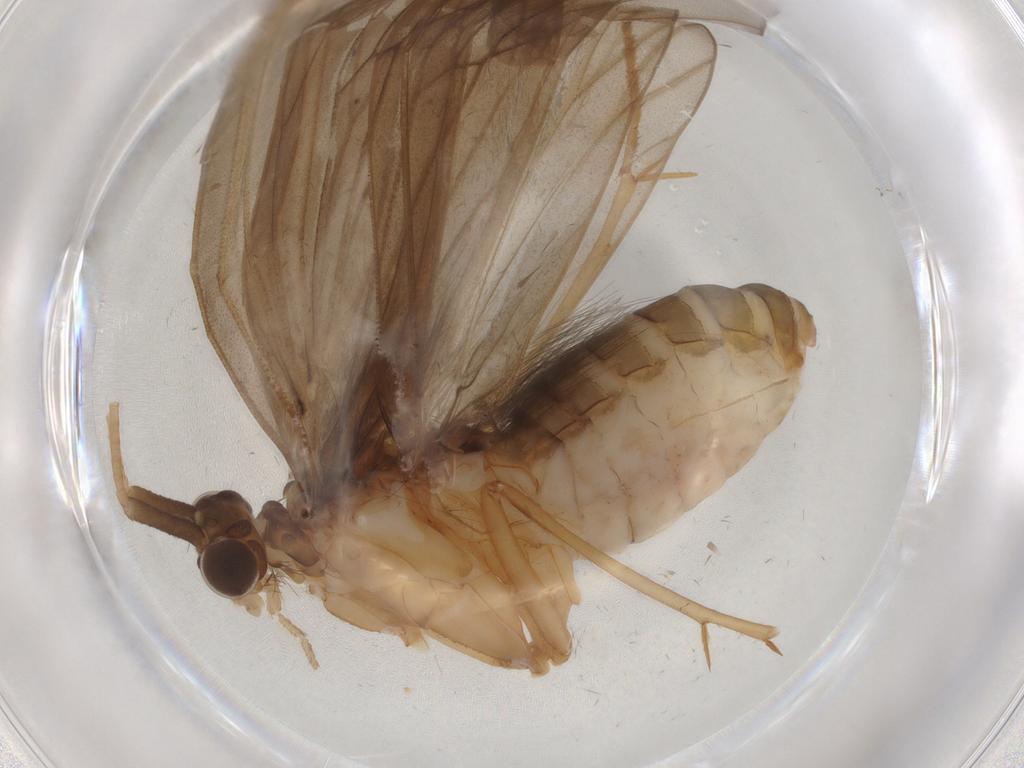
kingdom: Animalia
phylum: Arthropoda
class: Insecta
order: Trichoptera
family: Lepidostomatidae
